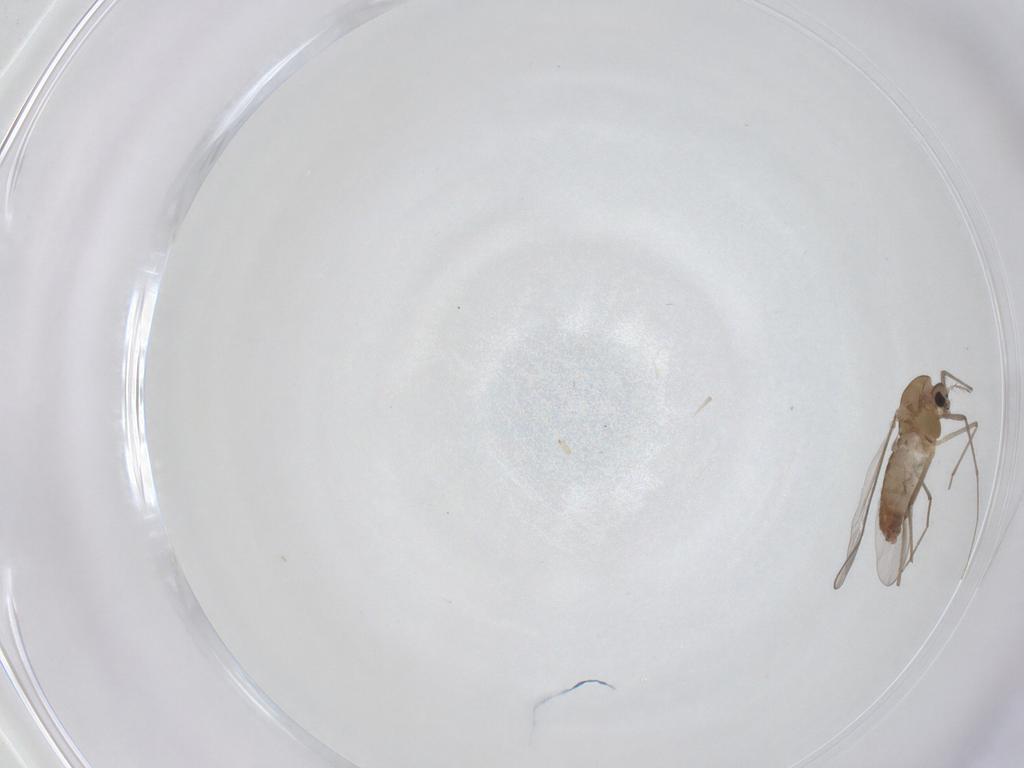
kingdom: Animalia
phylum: Arthropoda
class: Insecta
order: Diptera
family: Chironomidae
